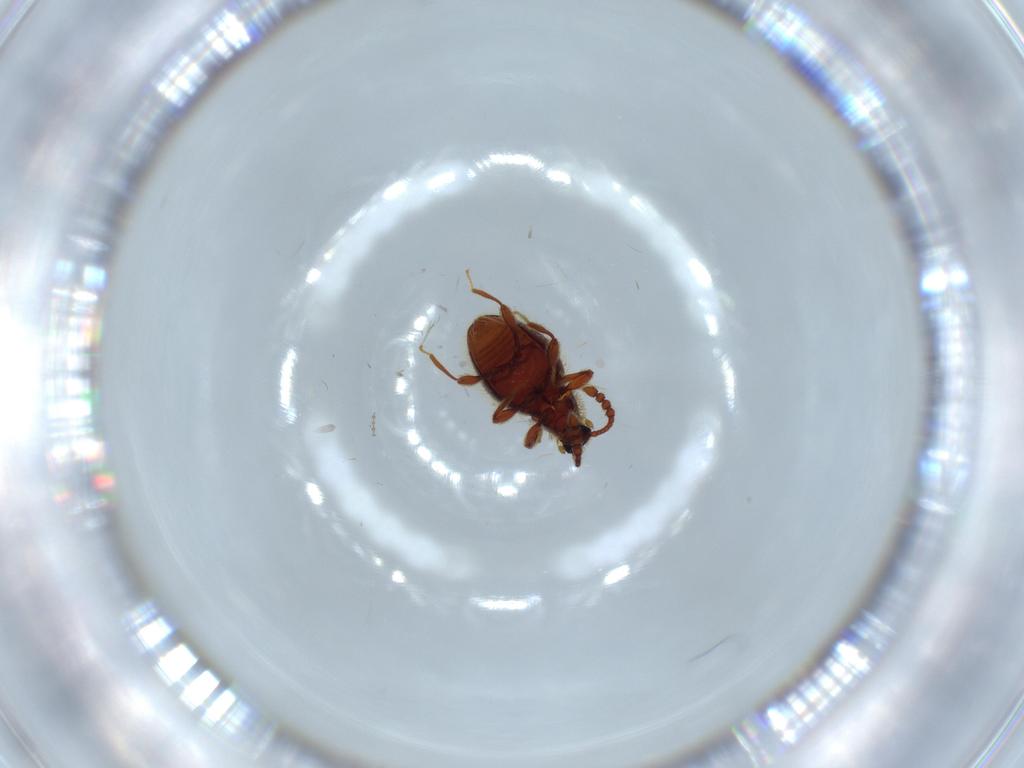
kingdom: Animalia
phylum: Arthropoda
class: Insecta
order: Coleoptera
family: Staphylinidae
